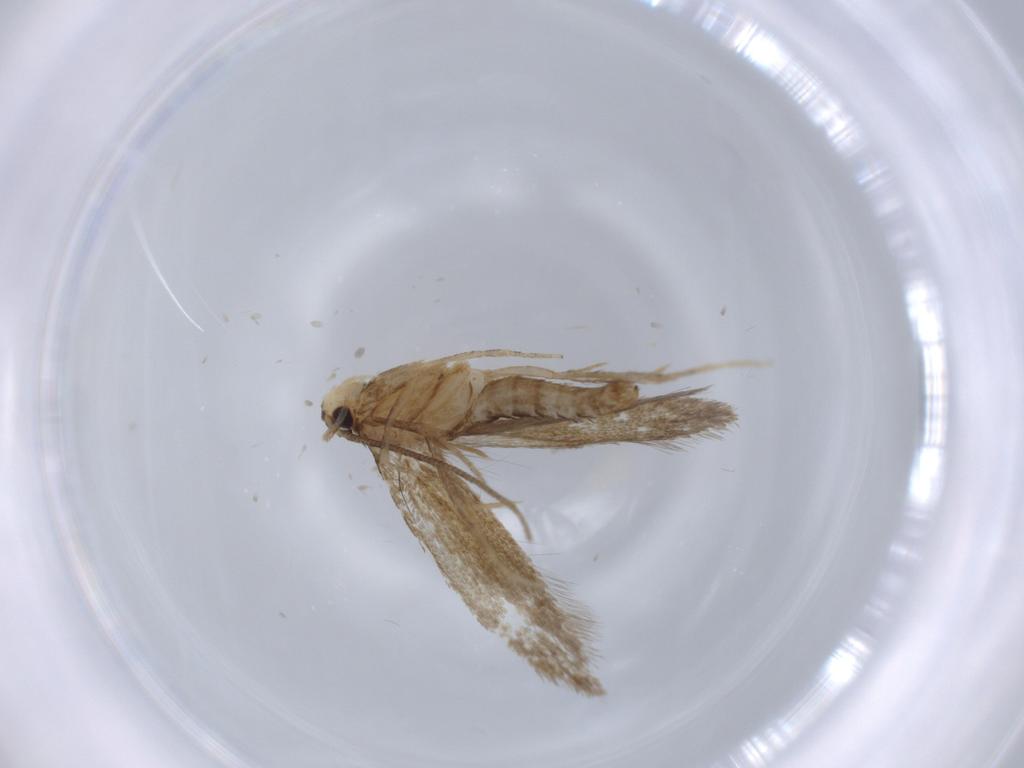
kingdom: Animalia
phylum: Arthropoda
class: Insecta
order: Lepidoptera
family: Tineidae
